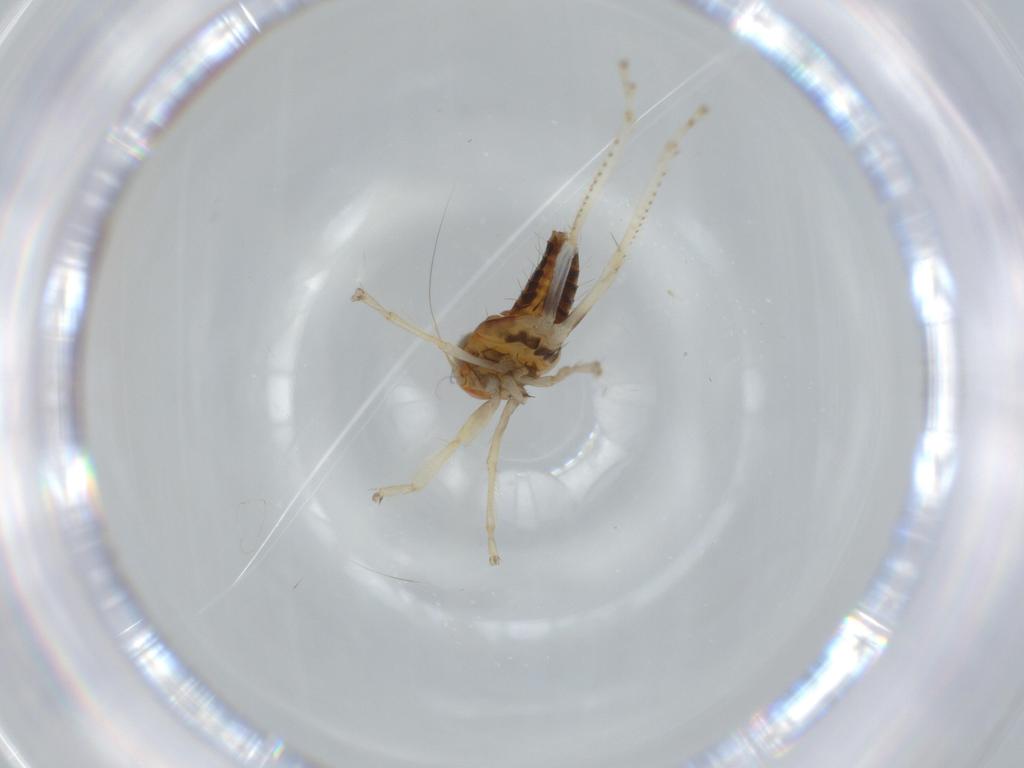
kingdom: Animalia
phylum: Arthropoda
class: Insecta
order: Hemiptera
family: Cicadellidae
